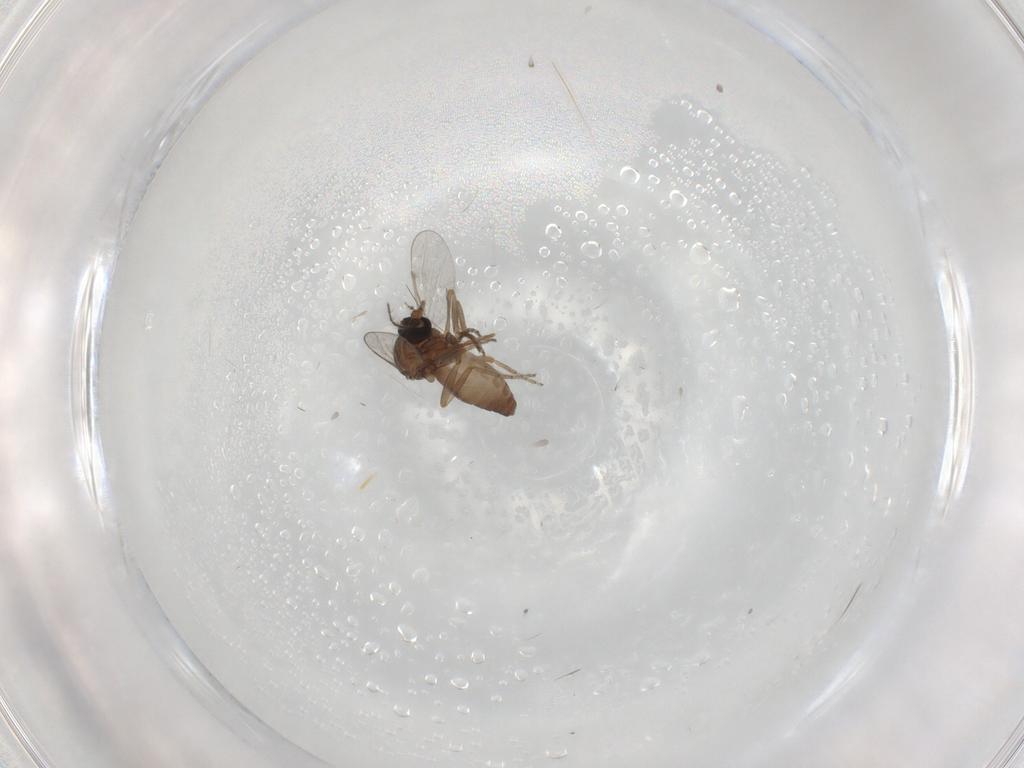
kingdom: Animalia
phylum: Arthropoda
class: Insecta
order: Diptera
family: Ceratopogonidae
